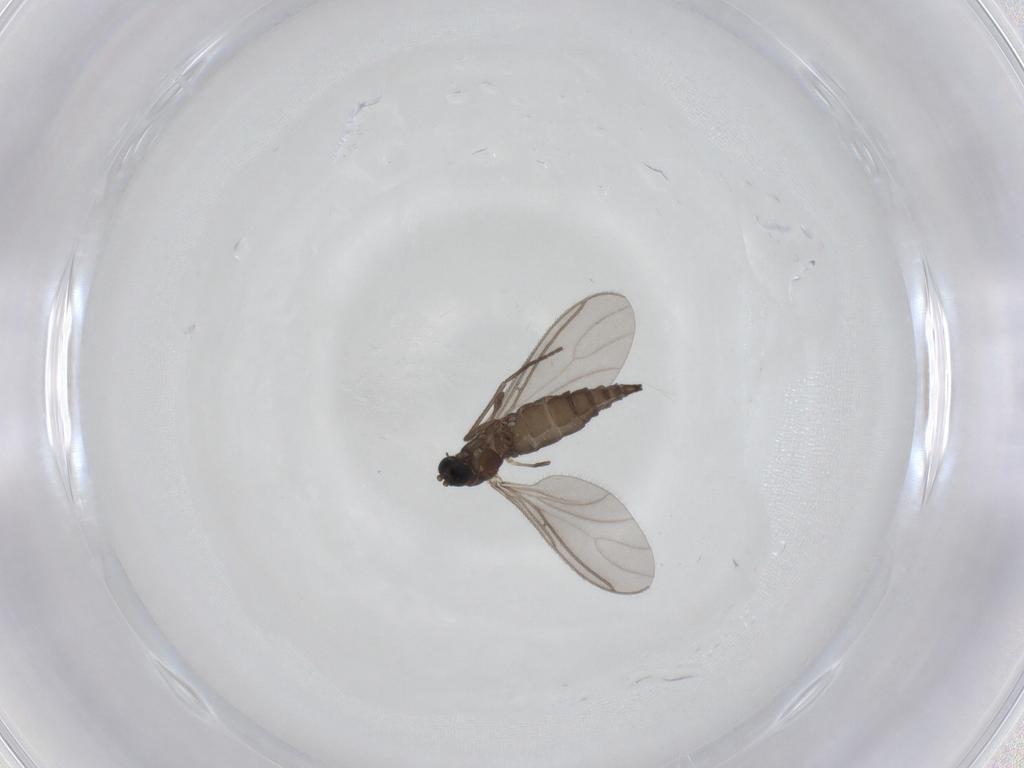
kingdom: Animalia
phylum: Arthropoda
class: Insecta
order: Diptera
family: Sciaridae
